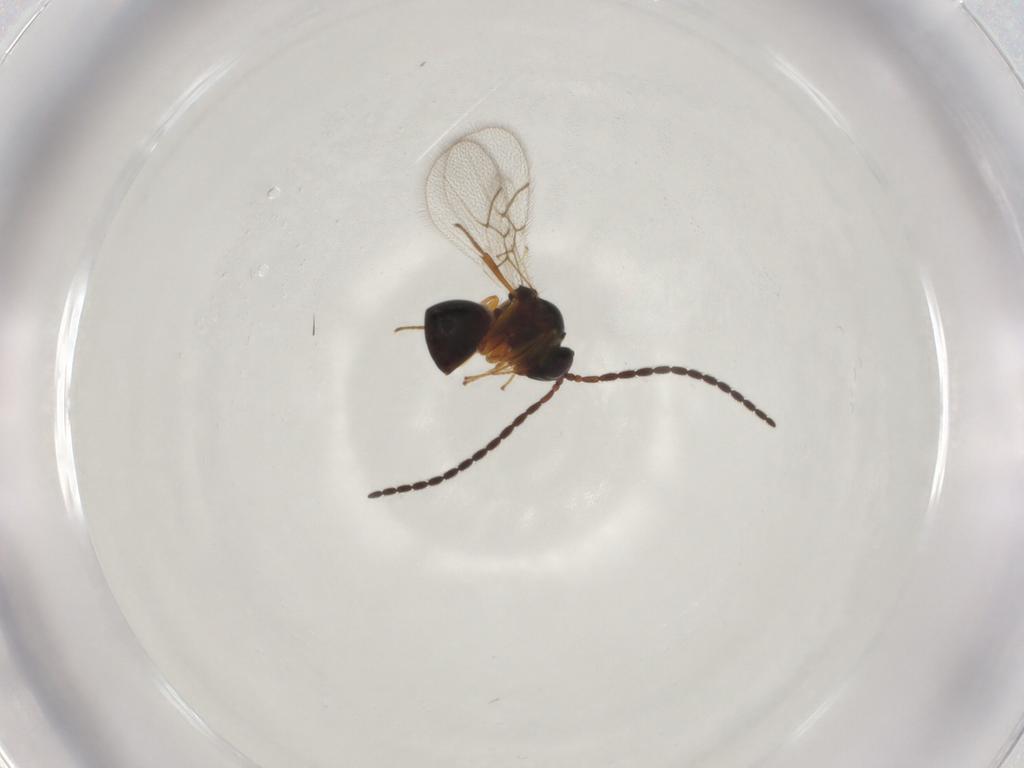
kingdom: Animalia
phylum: Arthropoda
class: Insecta
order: Hymenoptera
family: Figitidae
